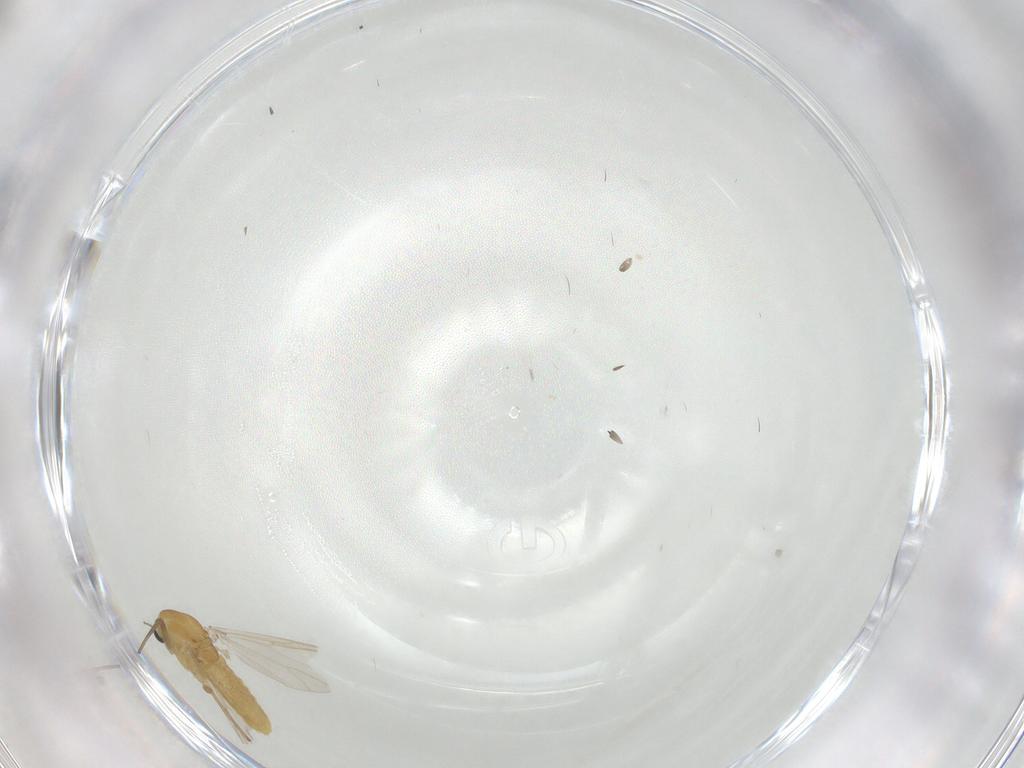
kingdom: Animalia
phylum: Arthropoda
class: Insecta
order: Diptera
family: Chironomidae
